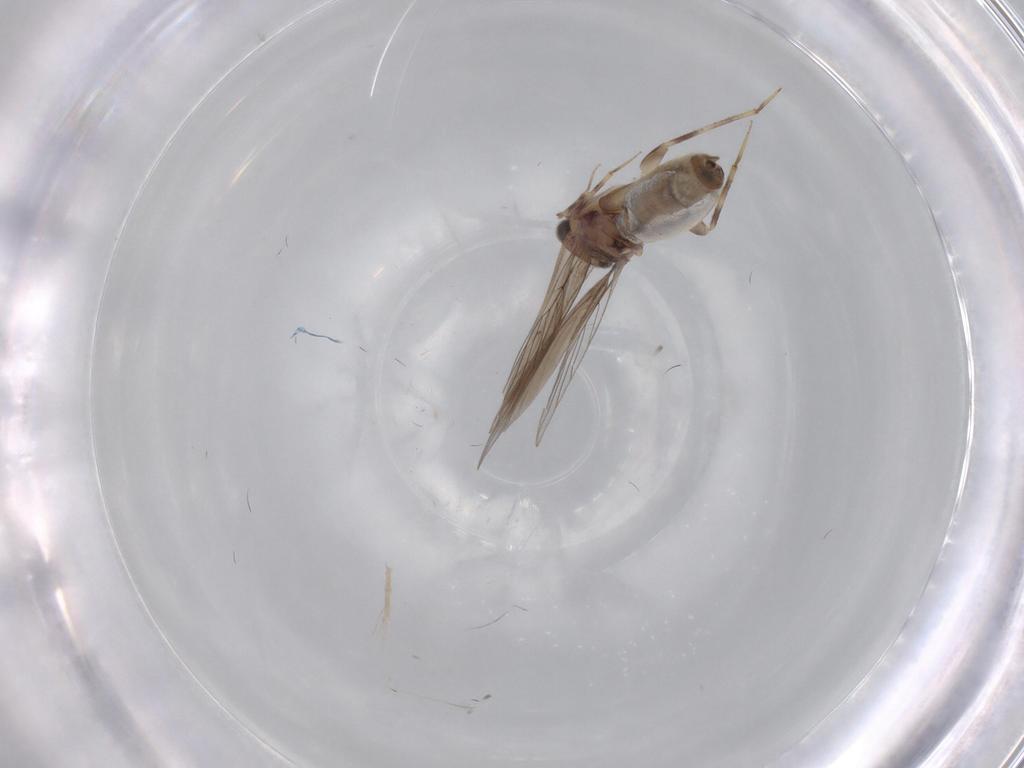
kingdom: Animalia
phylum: Arthropoda
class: Insecta
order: Psocodea
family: Lepidopsocidae
